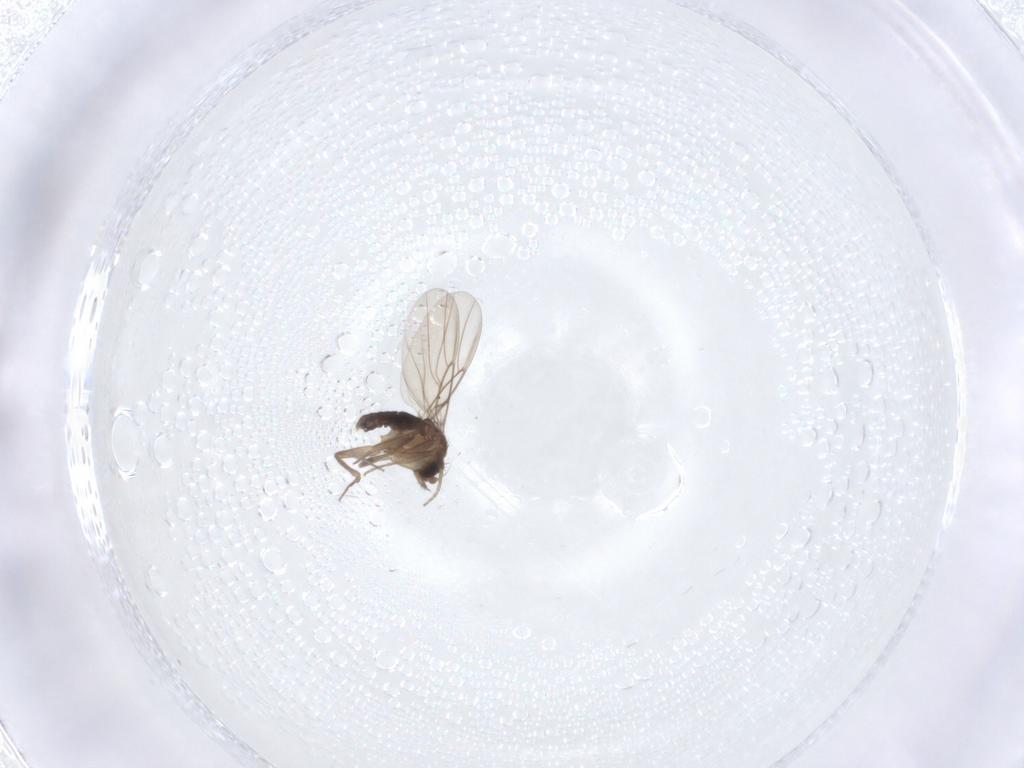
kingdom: Animalia
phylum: Arthropoda
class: Insecta
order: Diptera
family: Phoridae
